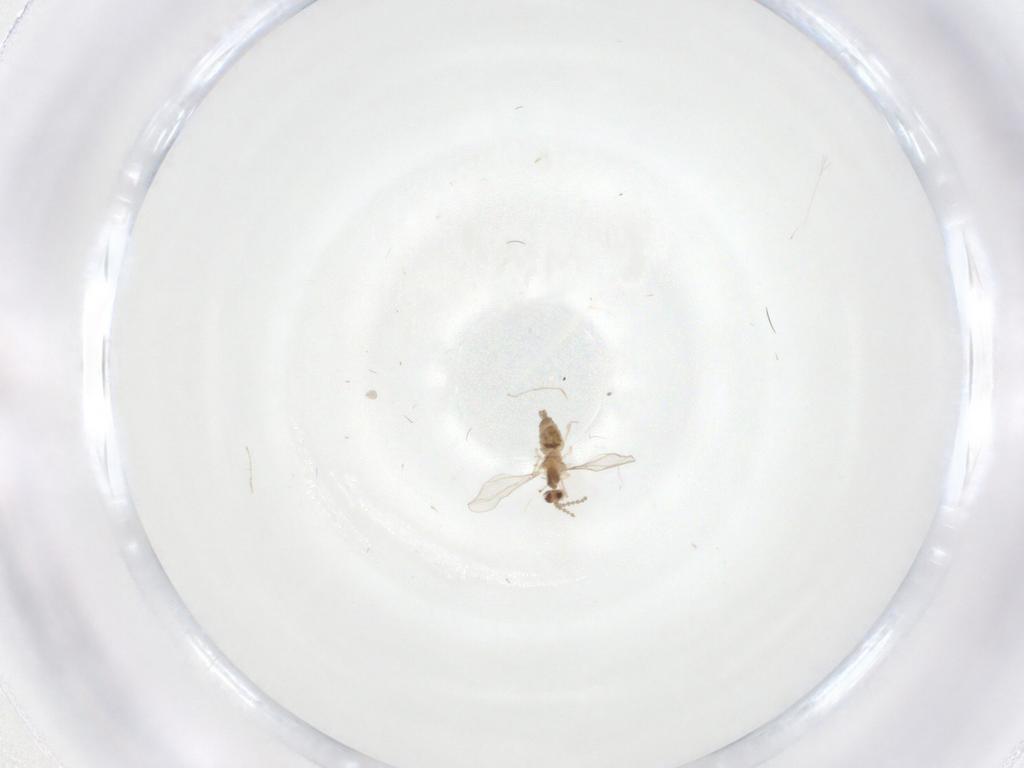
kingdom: Animalia
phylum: Arthropoda
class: Insecta
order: Diptera
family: Cecidomyiidae
